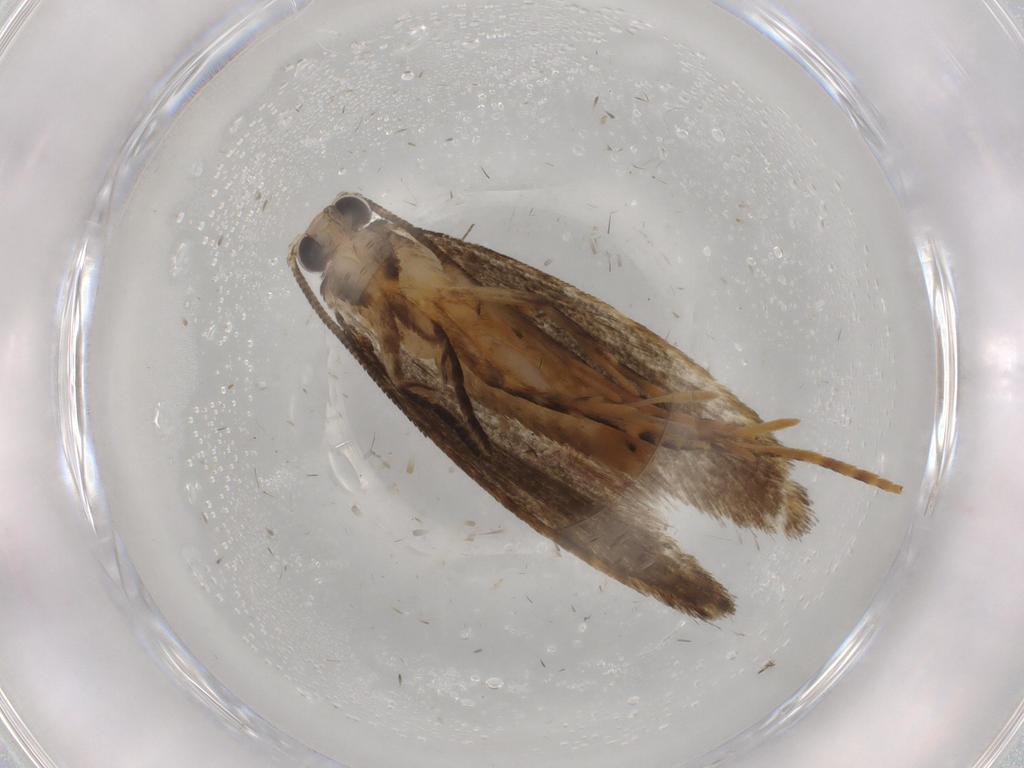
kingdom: Animalia
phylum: Arthropoda
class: Insecta
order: Lepidoptera
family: Tineidae
